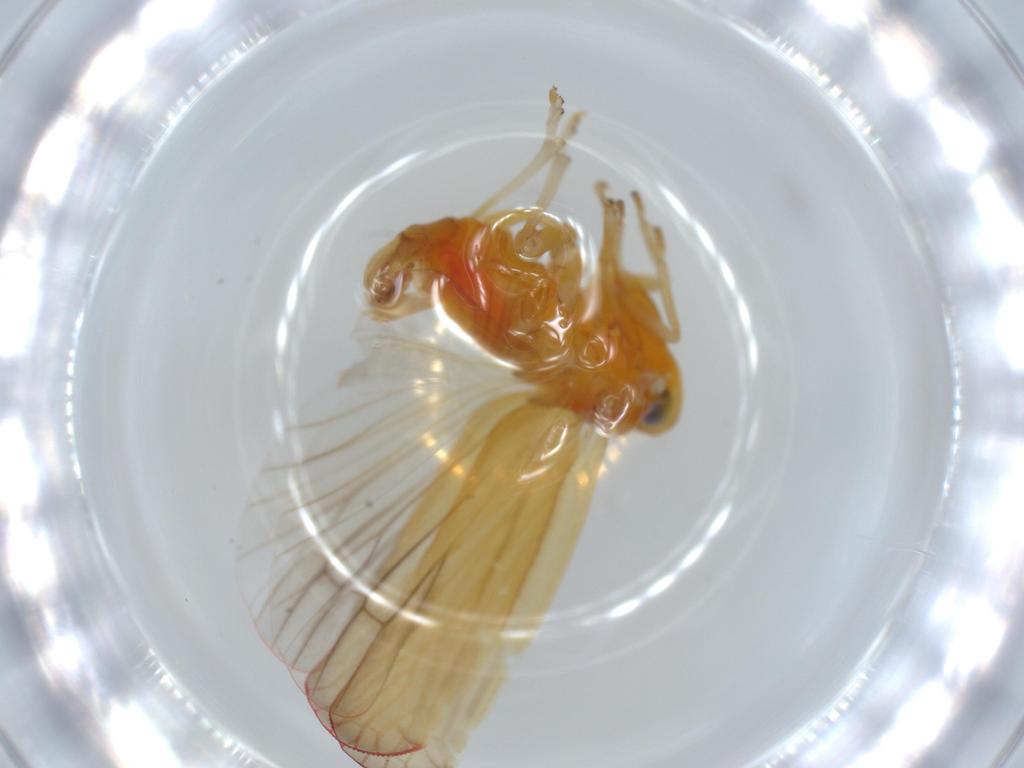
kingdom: Animalia
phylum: Arthropoda
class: Insecta
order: Hemiptera
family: Derbidae
